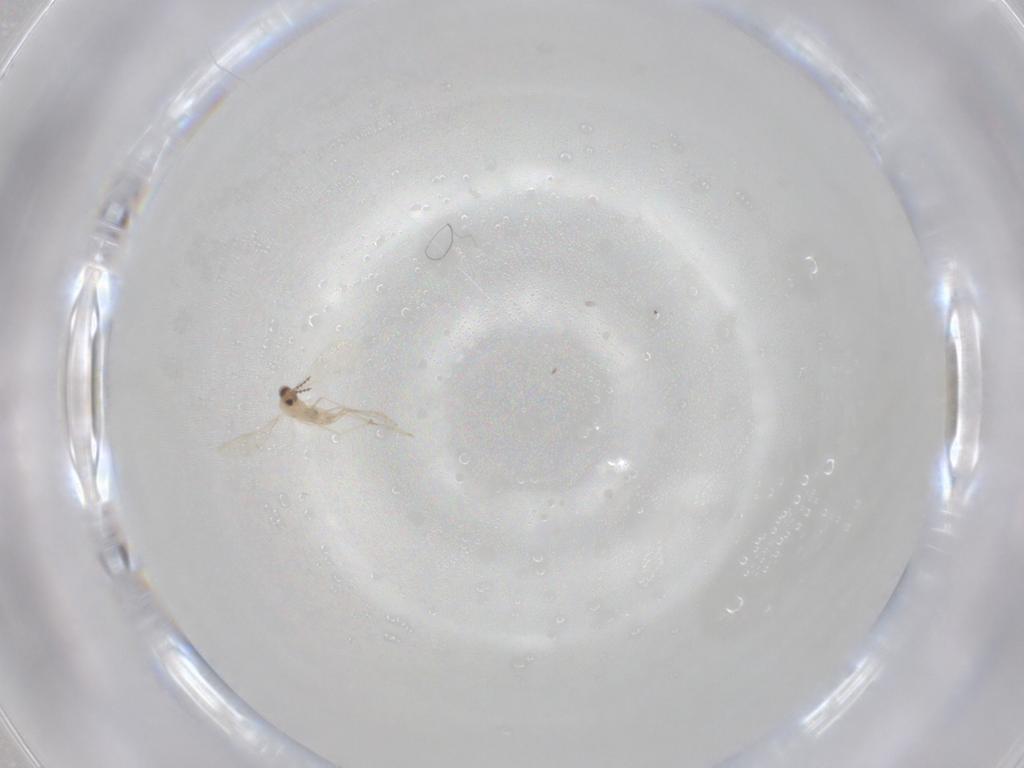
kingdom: Animalia
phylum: Arthropoda
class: Insecta
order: Diptera
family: Cecidomyiidae
